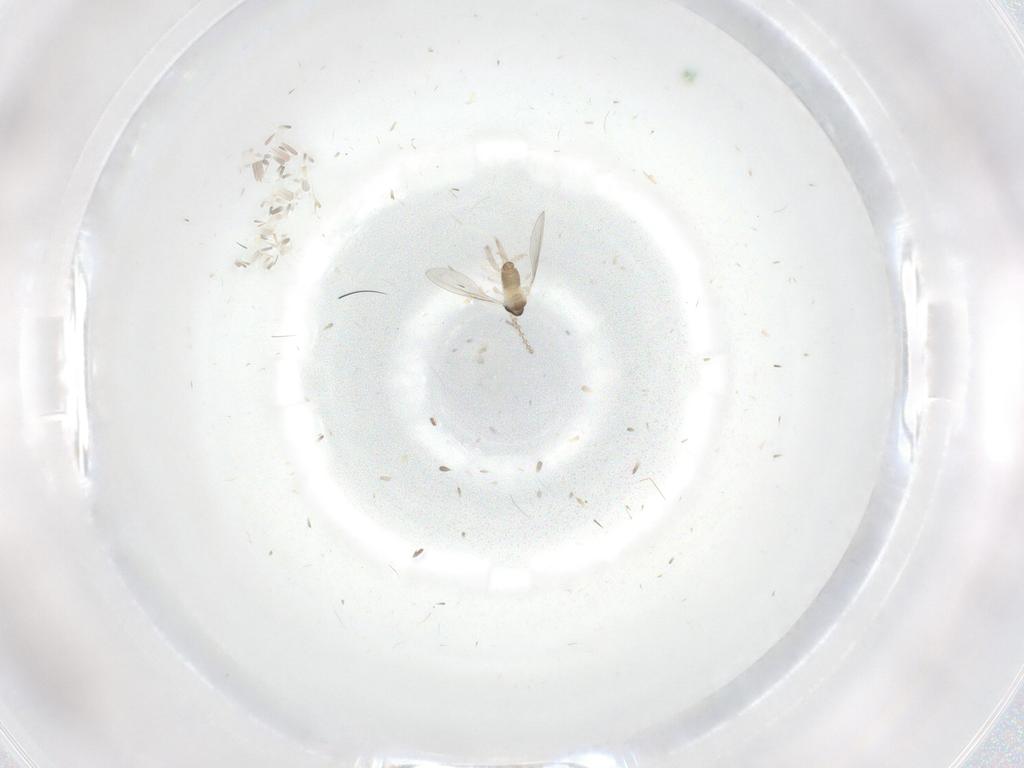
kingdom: Animalia
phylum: Arthropoda
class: Insecta
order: Diptera
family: Cecidomyiidae
